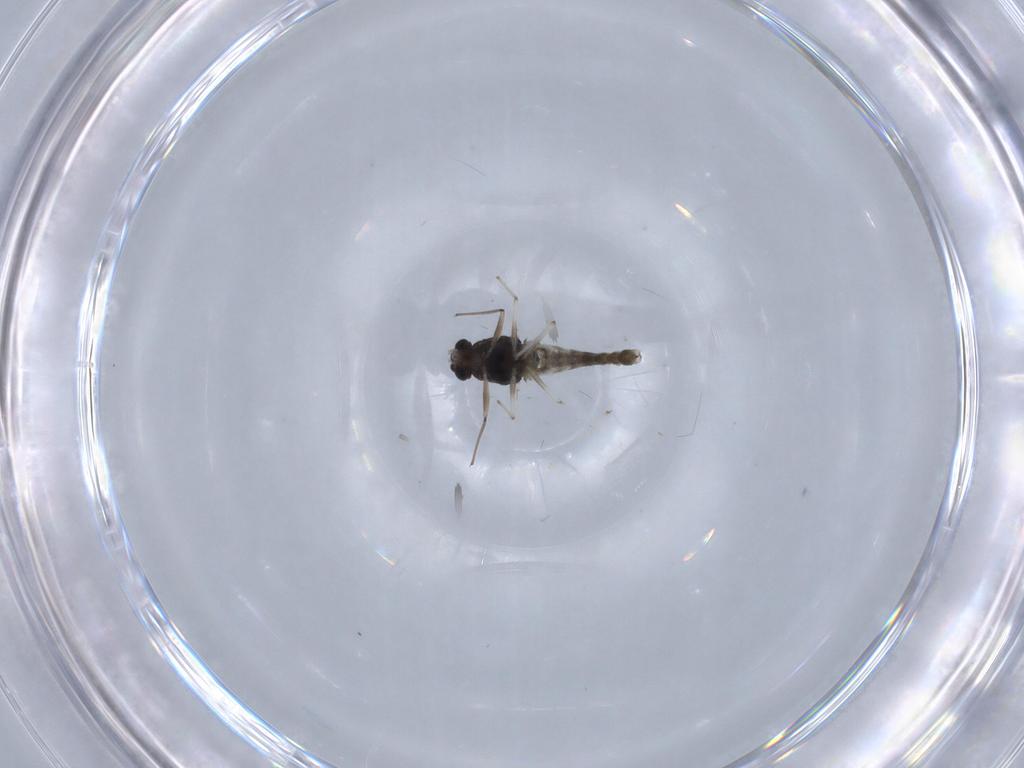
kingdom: Animalia
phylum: Arthropoda
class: Insecta
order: Diptera
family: Chironomidae
